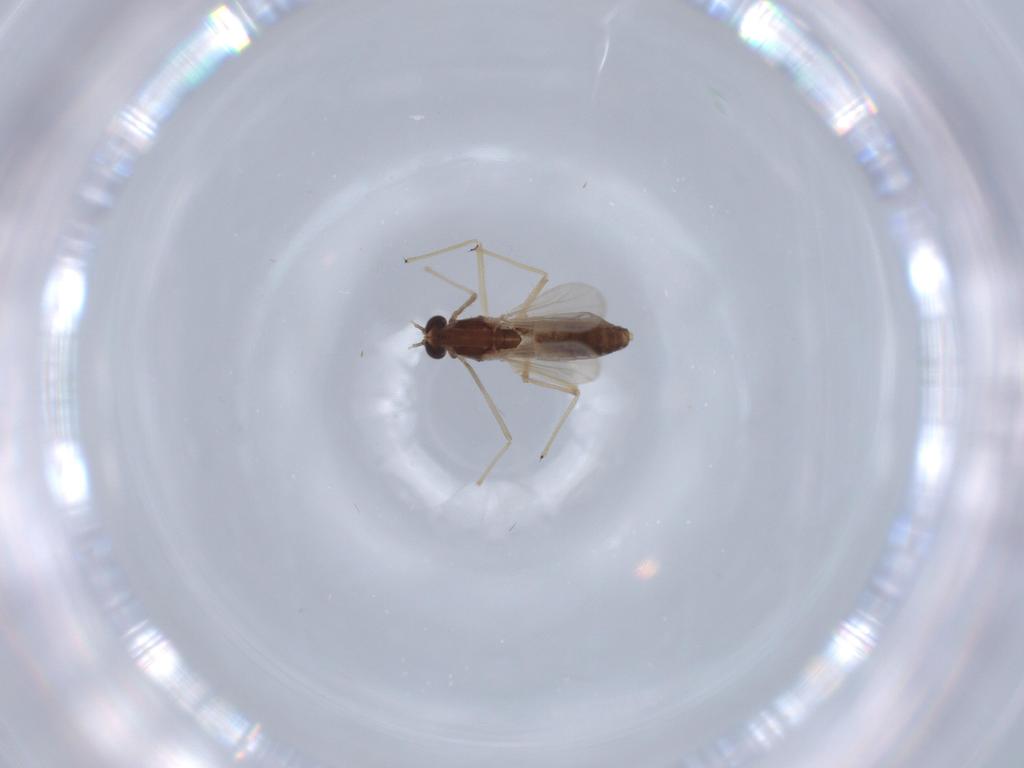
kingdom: Animalia
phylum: Arthropoda
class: Insecta
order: Diptera
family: Chironomidae
